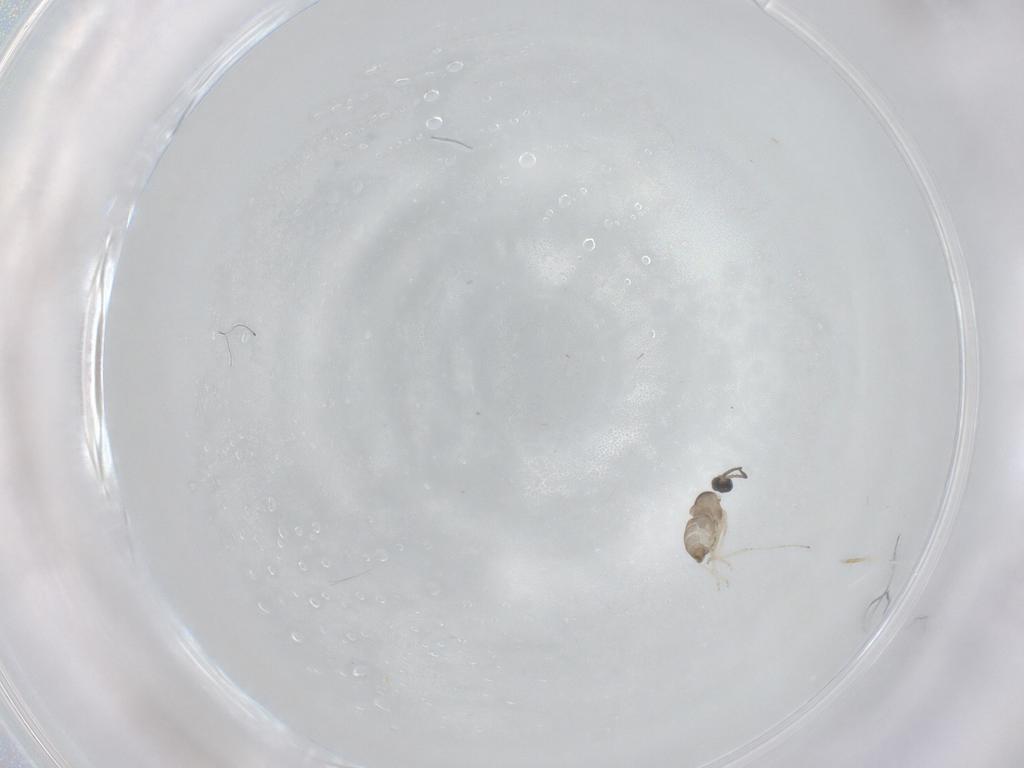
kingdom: Animalia
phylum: Arthropoda
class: Insecta
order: Diptera
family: Cecidomyiidae
